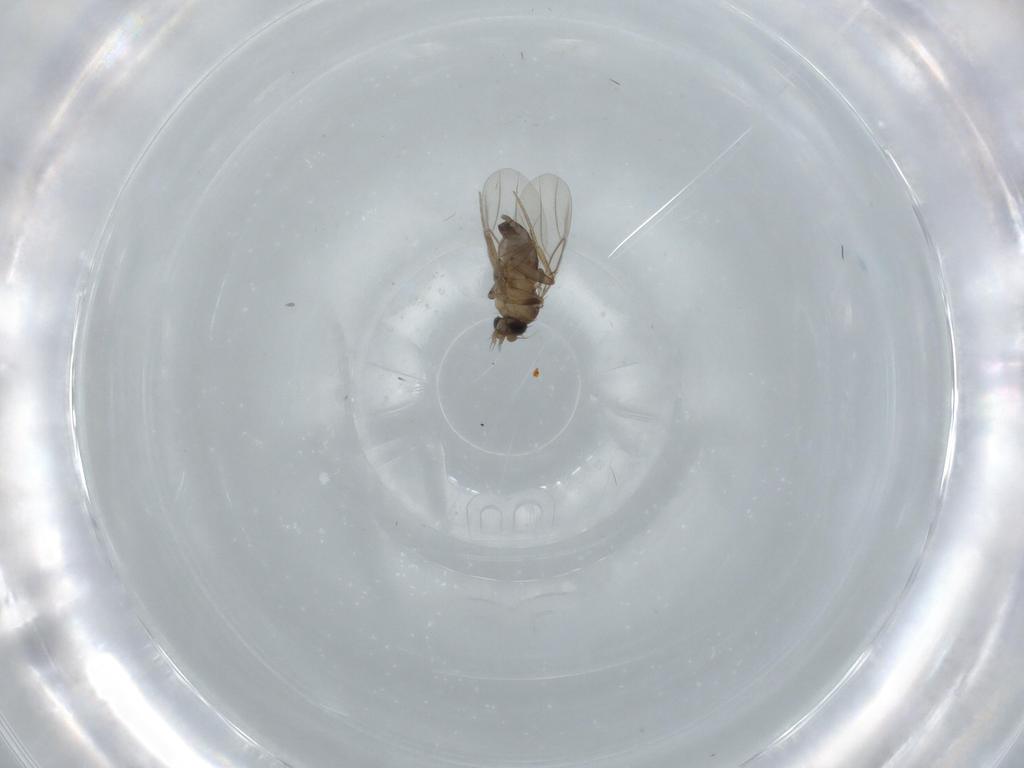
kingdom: Animalia
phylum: Arthropoda
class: Insecta
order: Diptera
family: Phoridae
